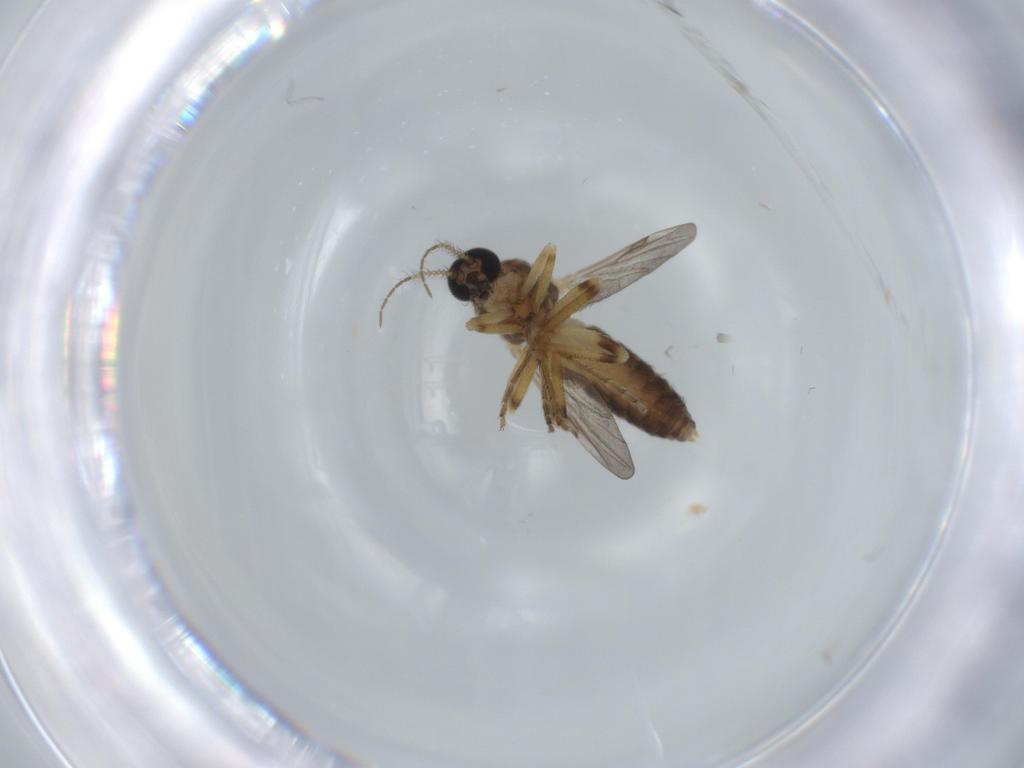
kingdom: Animalia
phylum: Arthropoda
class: Insecta
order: Diptera
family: Ceratopogonidae
